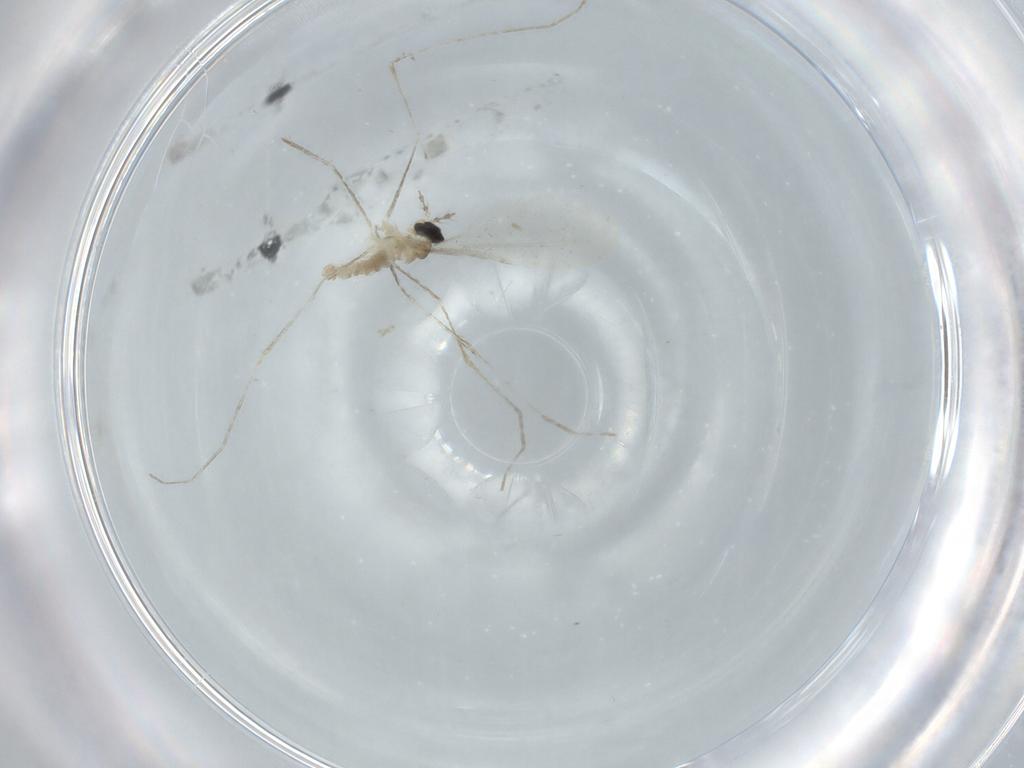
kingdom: Animalia
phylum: Arthropoda
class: Insecta
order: Diptera
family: Cecidomyiidae
